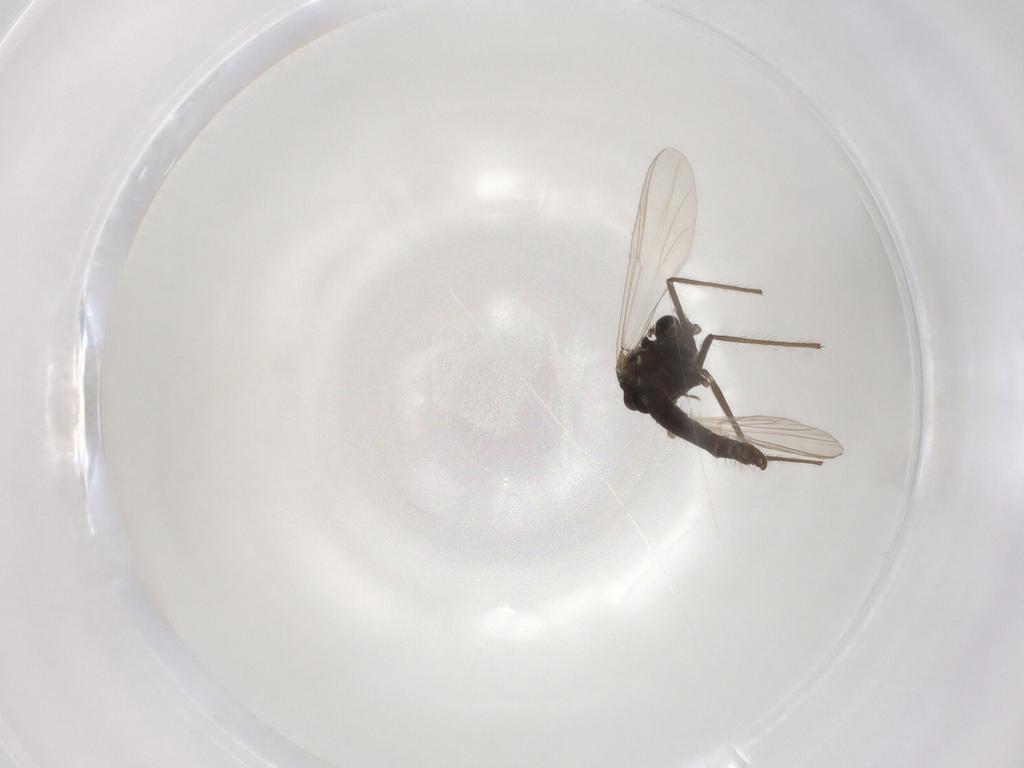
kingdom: Animalia
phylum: Arthropoda
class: Insecta
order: Diptera
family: Chironomidae
